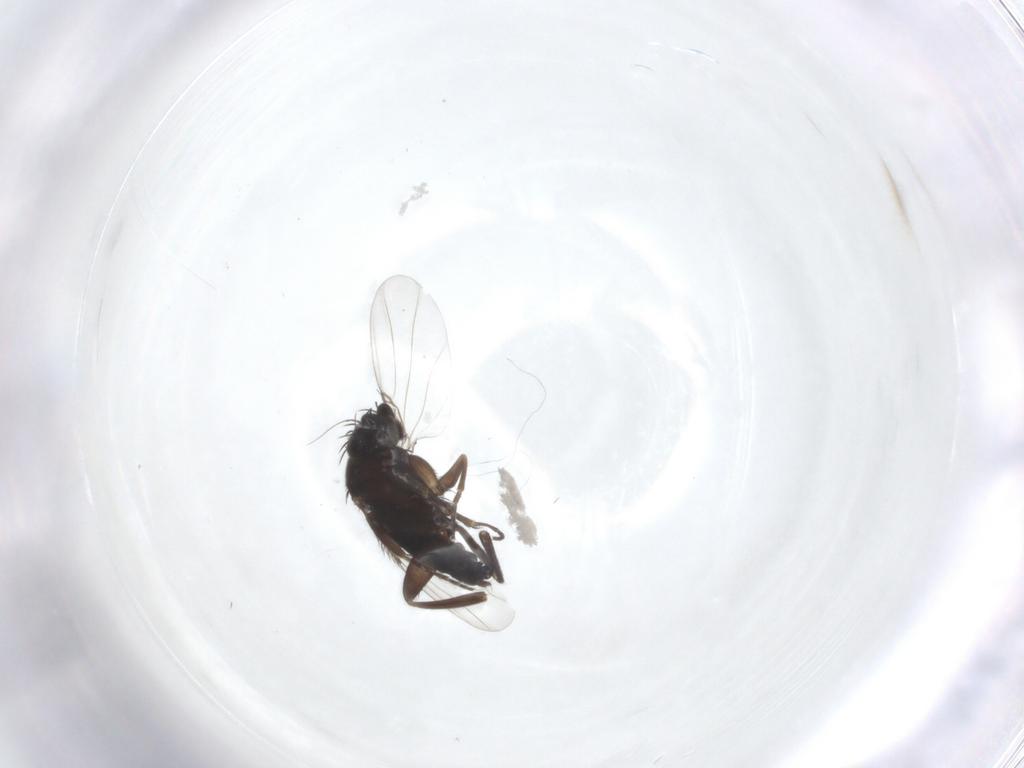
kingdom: Animalia
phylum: Arthropoda
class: Insecta
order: Diptera
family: Phoridae
